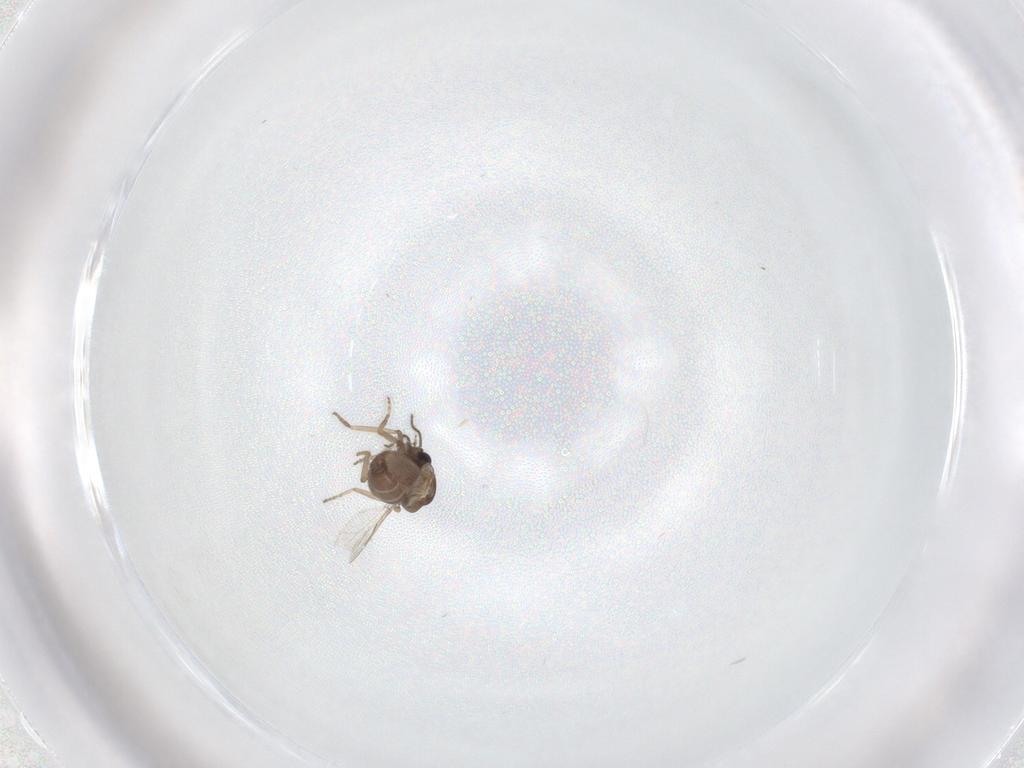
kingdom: Animalia
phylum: Arthropoda
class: Insecta
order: Diptera
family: Ceratopogonidae
